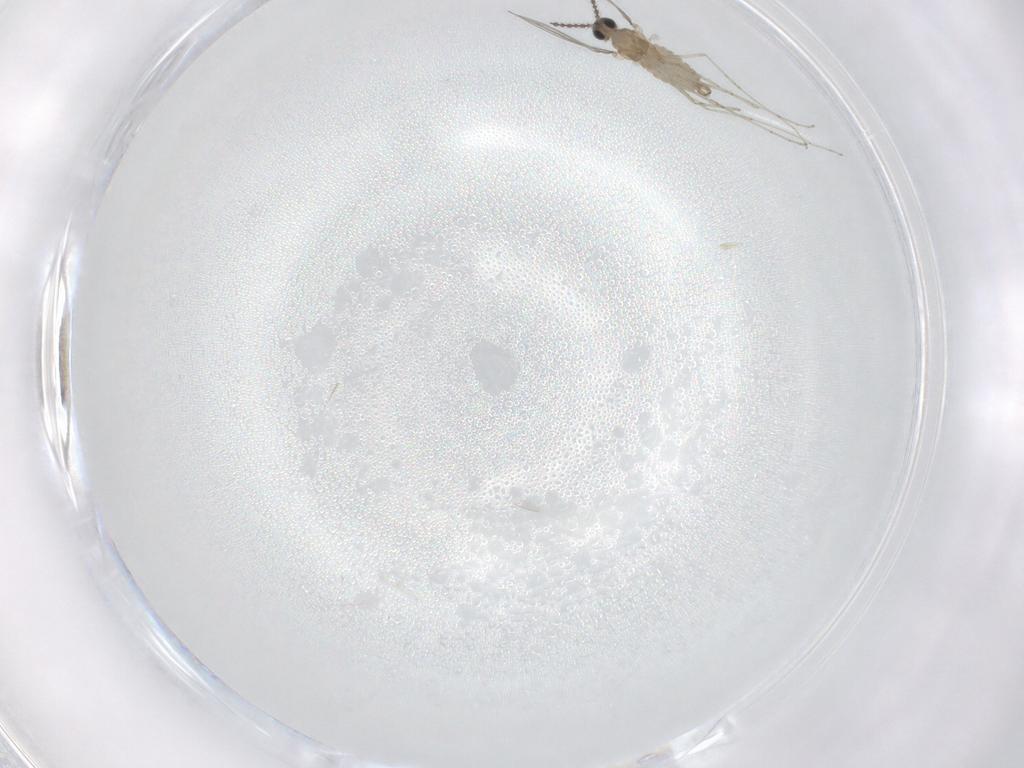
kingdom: Animalia
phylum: Arthropoda
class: Insecta
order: Diptera
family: Cecidomyiidae
